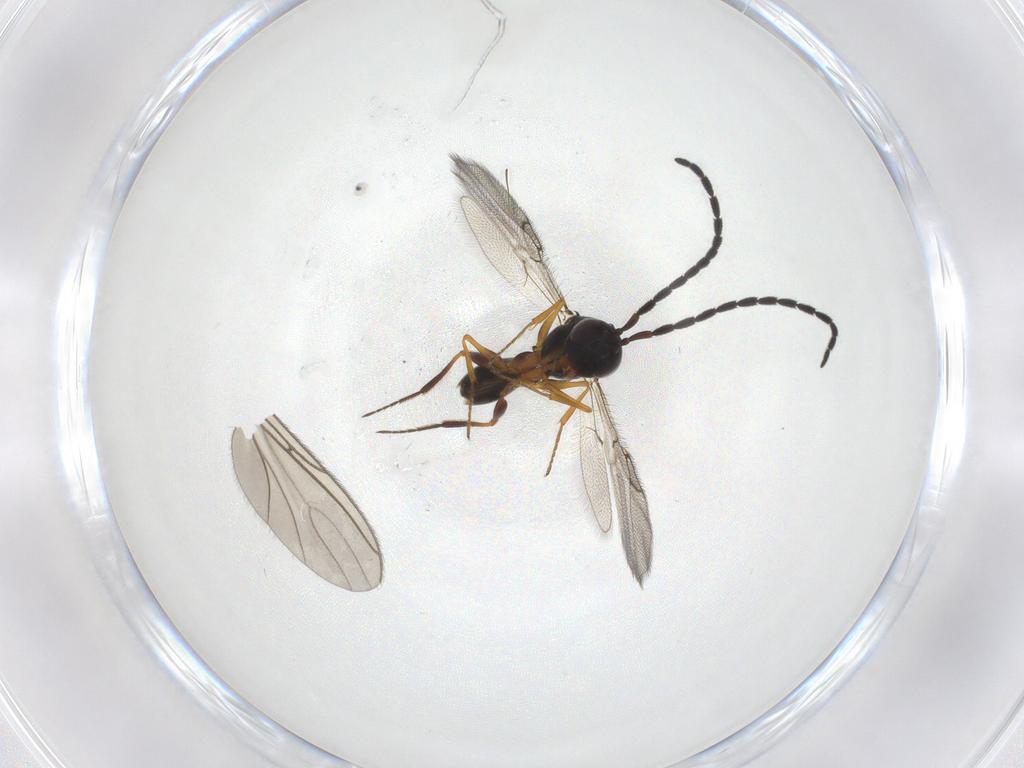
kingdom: Animalia
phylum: Arthropoda
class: Insecta
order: Hymenoptera
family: Figitidae
